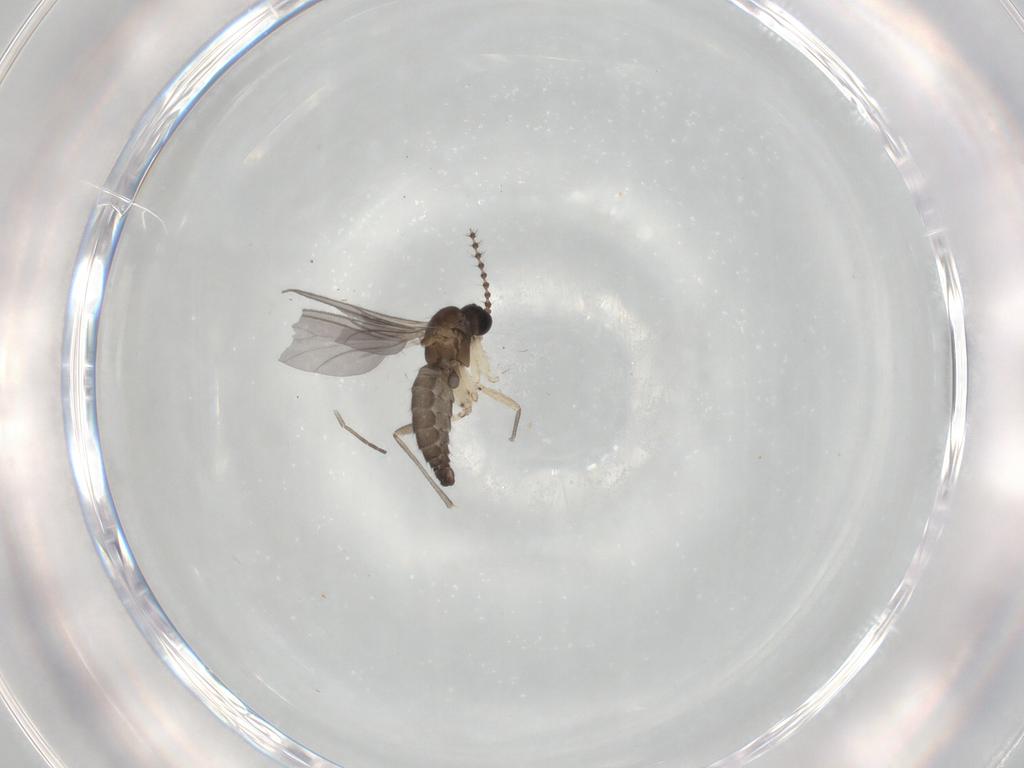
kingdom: Animalia
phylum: Arthropoda
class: Insecta
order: Diptera
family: Sciaridae
